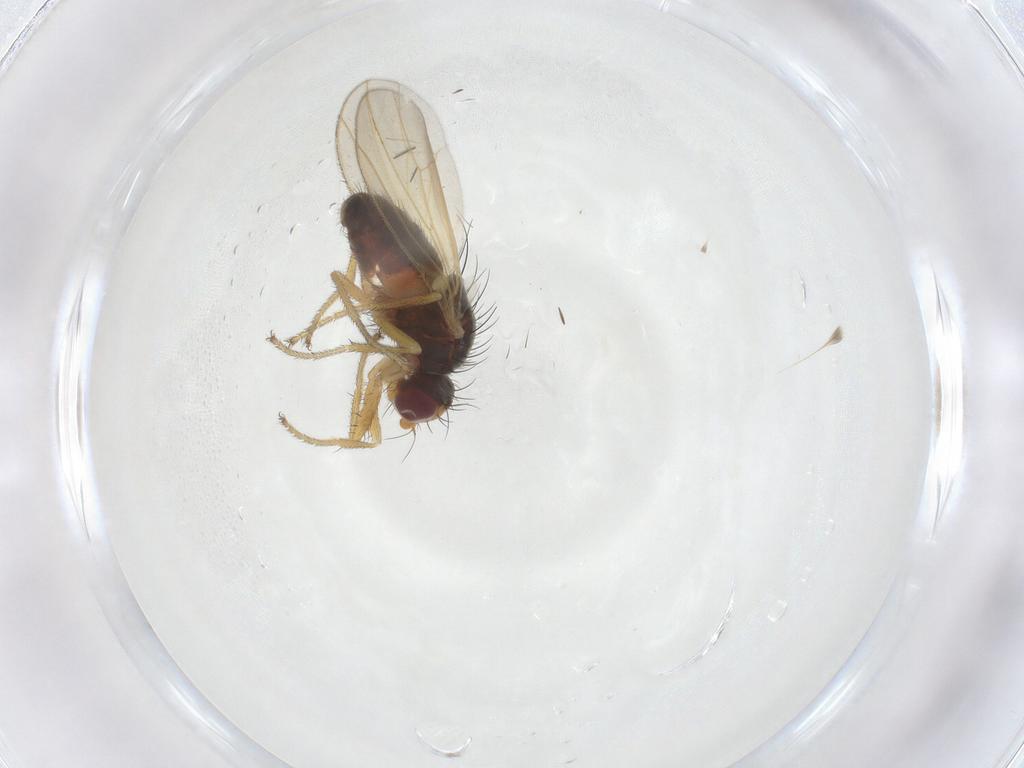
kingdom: Animalia
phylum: Arthropoda
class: Insecta
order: Diptera
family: Heleomyzidae
